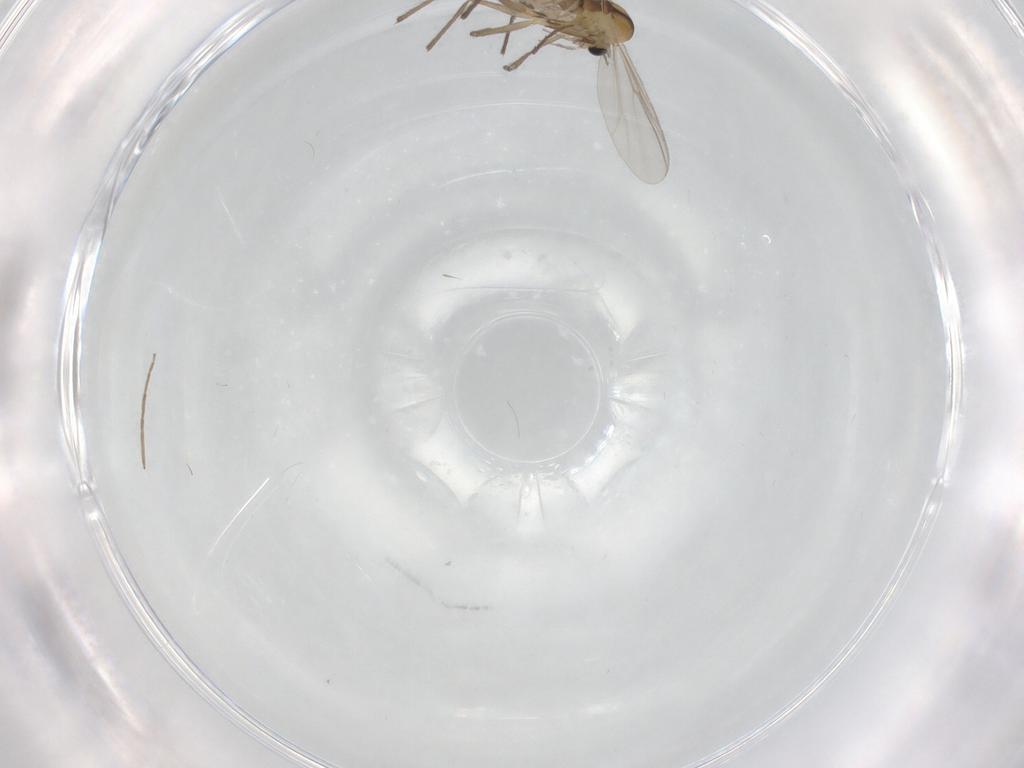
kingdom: Animalia
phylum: Arthropoda
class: Insecta
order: Diptera
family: Chironomidae
